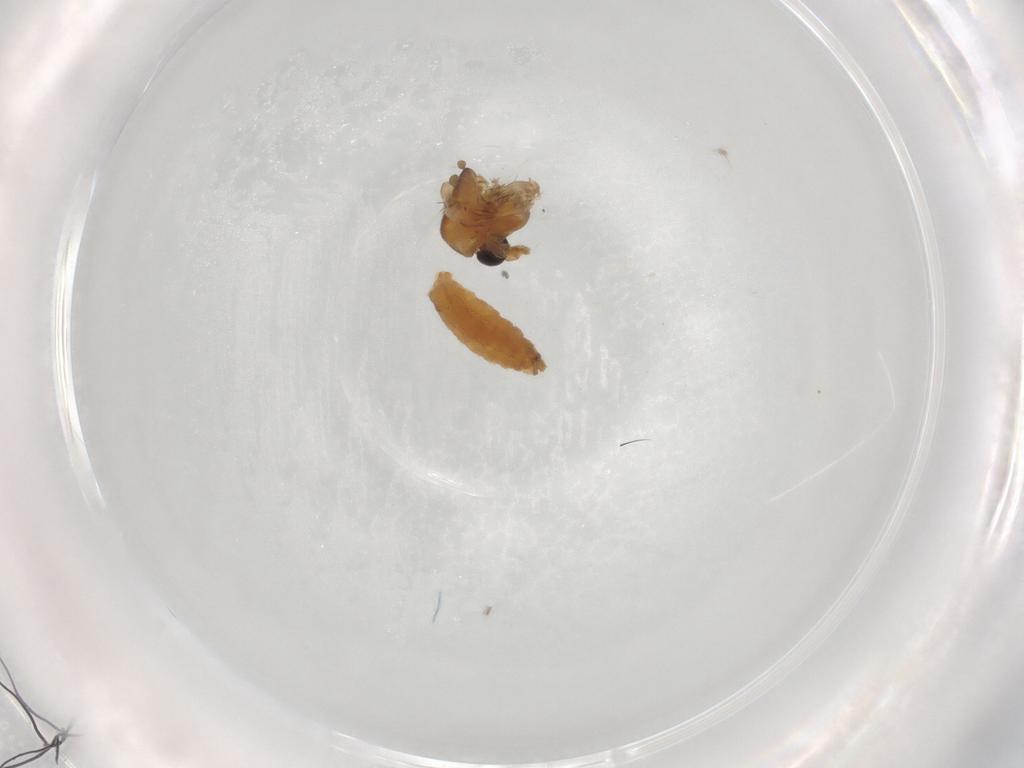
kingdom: Animalia
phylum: Arthropoda
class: Insecta
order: Diptera
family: Chironomidae
